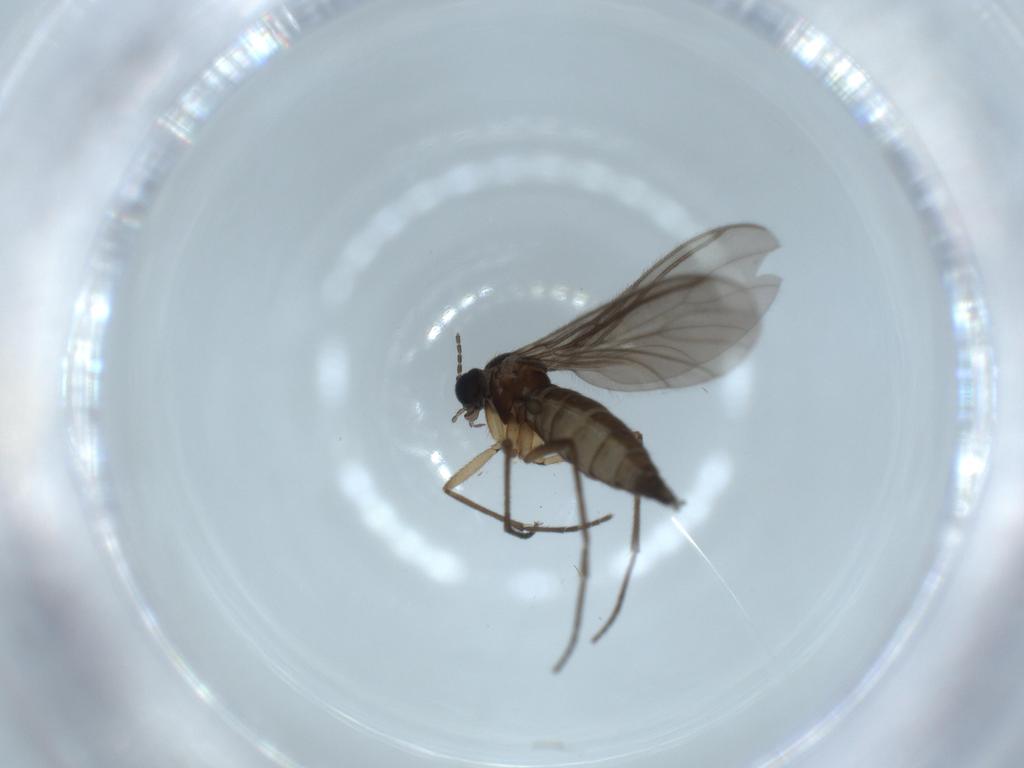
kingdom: Animalia
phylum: Arthropoda
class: Insecta
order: Diptera
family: Sciaridae
